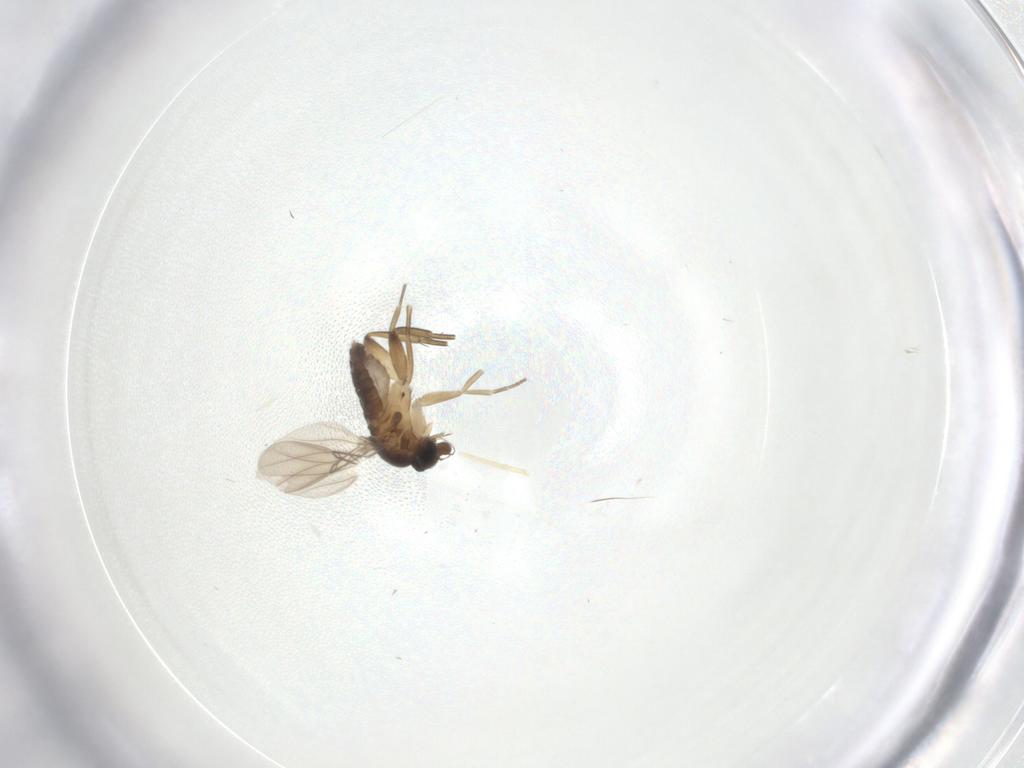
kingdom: Animalia
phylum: Arthropoda
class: Insecta
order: Diptera
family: Phoridae
